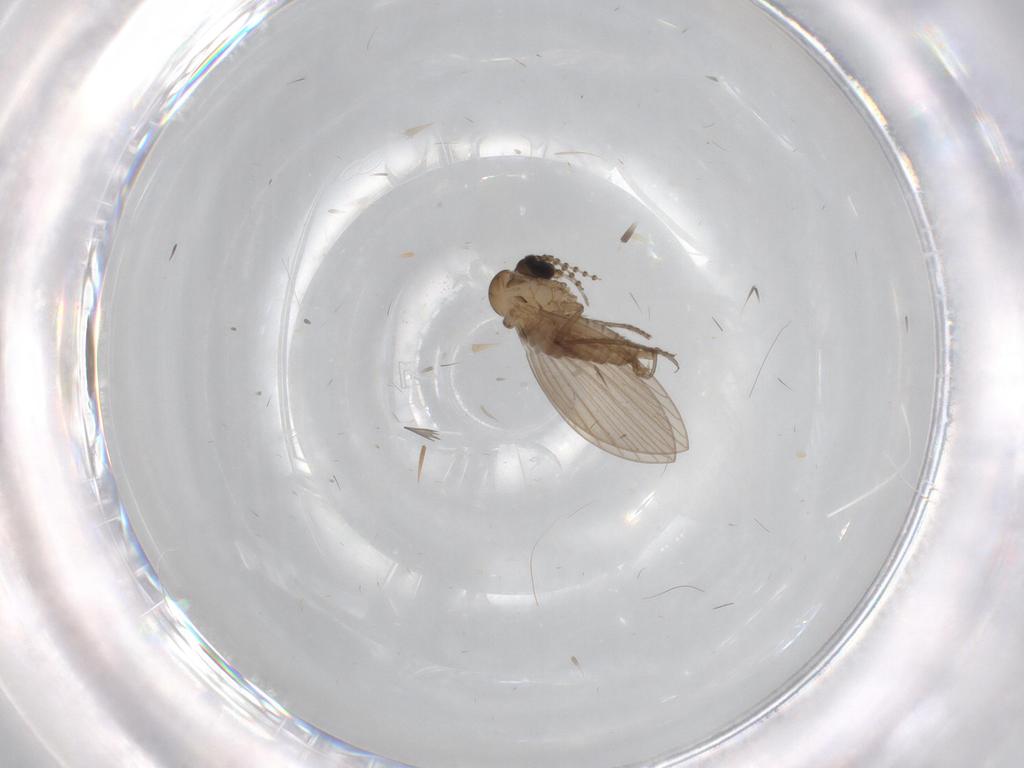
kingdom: Animalia
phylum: Arthropoda
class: Insecta
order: Diptera
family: Psychodidae
